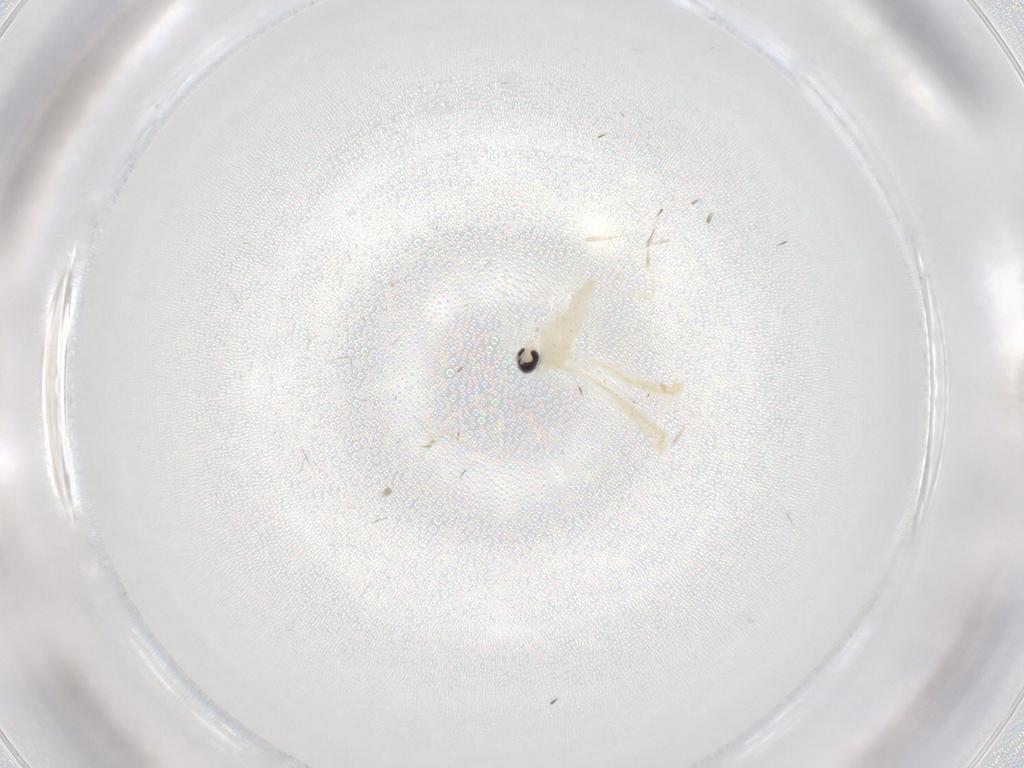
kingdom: Animalia
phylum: Arthropoda
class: Insecta
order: Diptera
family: Cecidomyiidae
